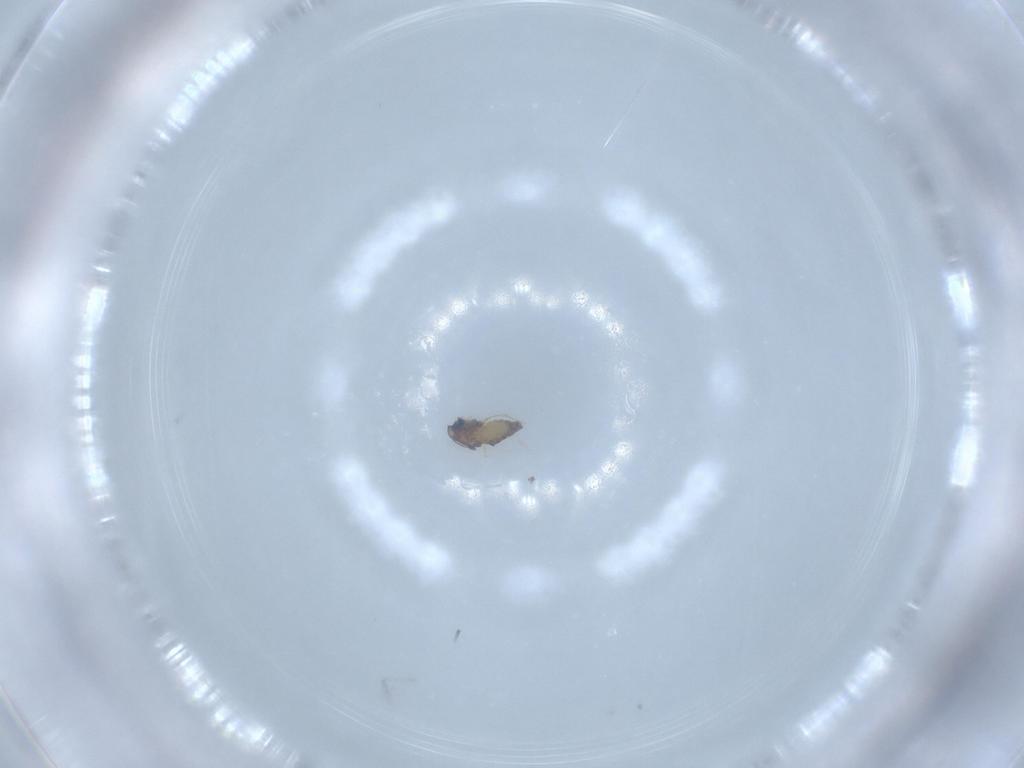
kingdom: Animalia
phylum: Arthropoda
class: Insecta
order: Diptera
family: Chironomidae
